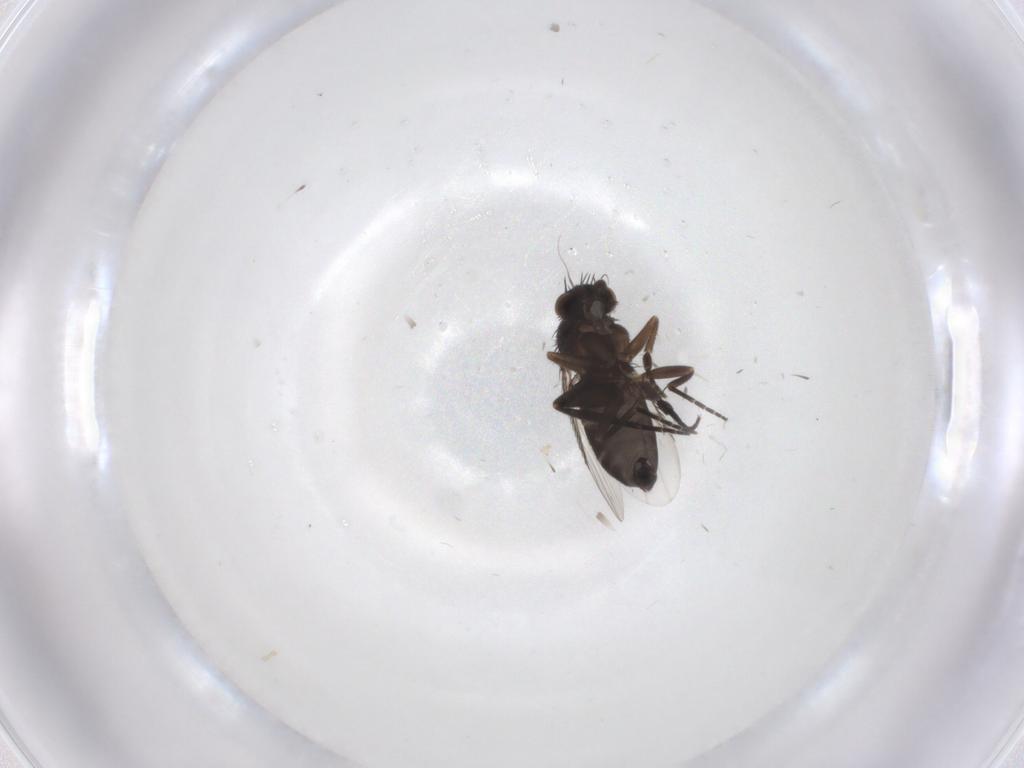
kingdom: Animalia
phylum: Arthropoda
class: Insecta
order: Diptera
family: Phoridae
